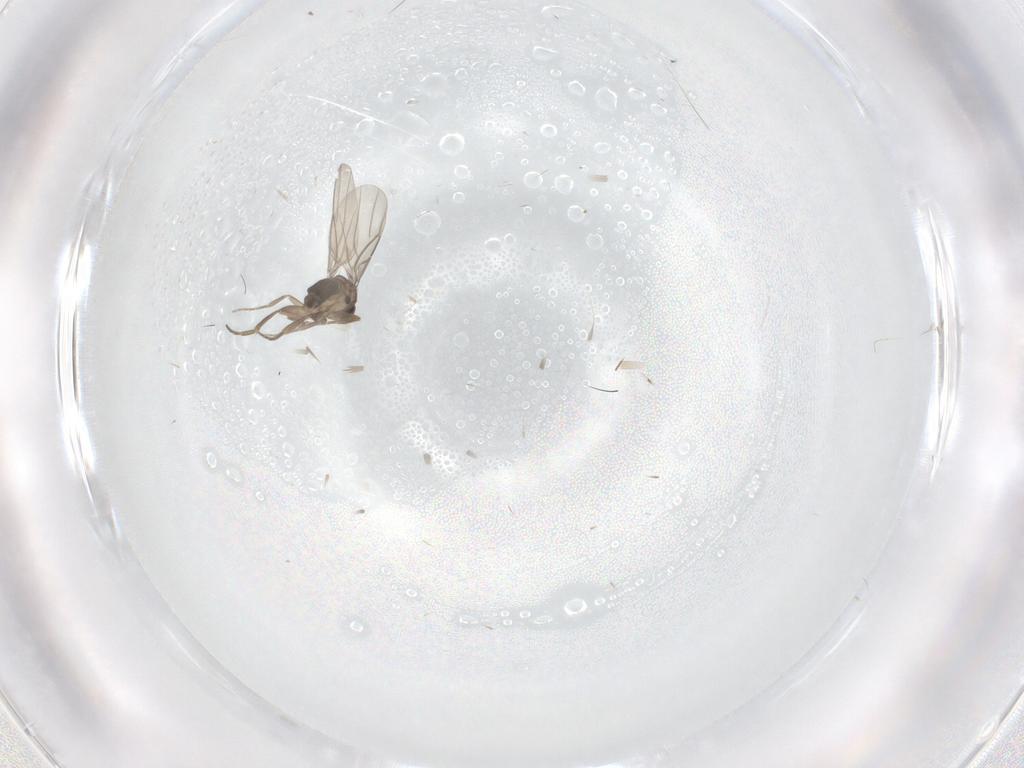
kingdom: Animalia
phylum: Arthropoda
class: Insecta
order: Diptera
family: Phoridae
